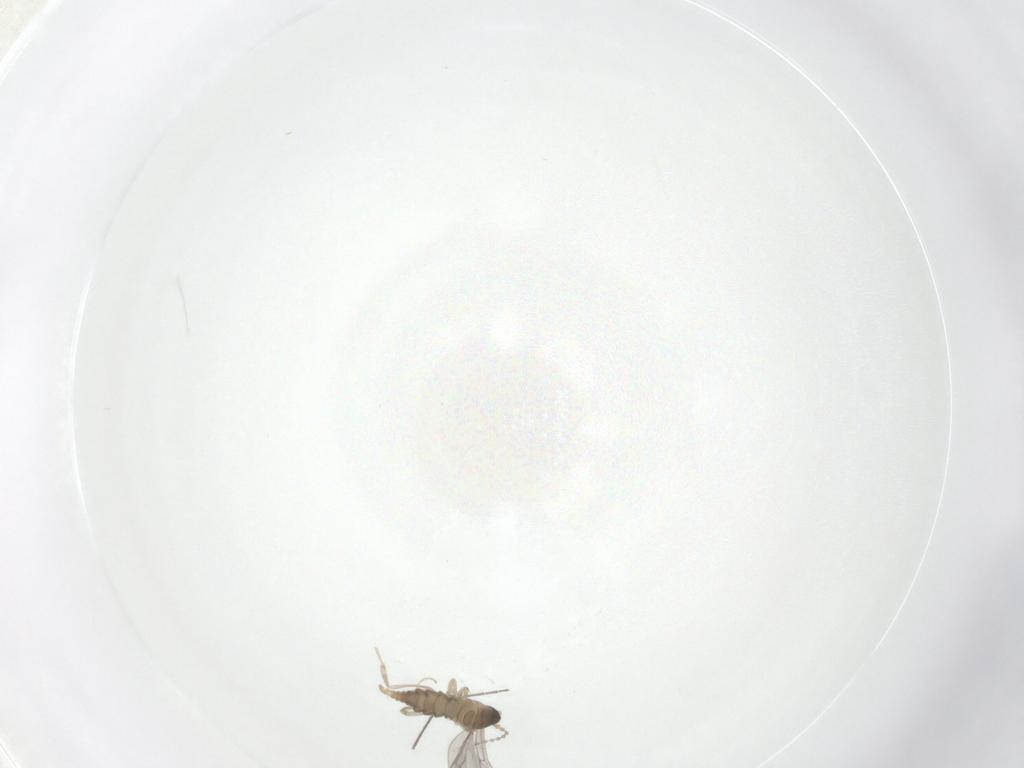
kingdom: Animalia
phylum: Arthropoda
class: Insecta
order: Diptera
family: Cecidomyiidae
